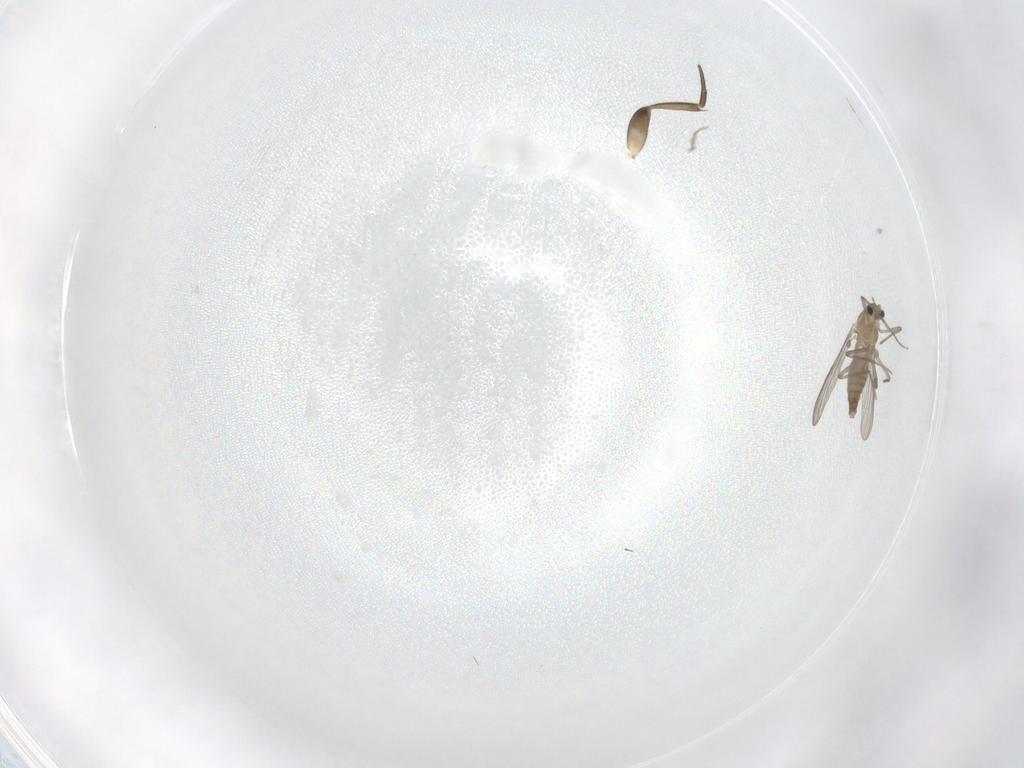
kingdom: Animalia
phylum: Arthropoda
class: Insecta
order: Diptera
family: Chironomidae
